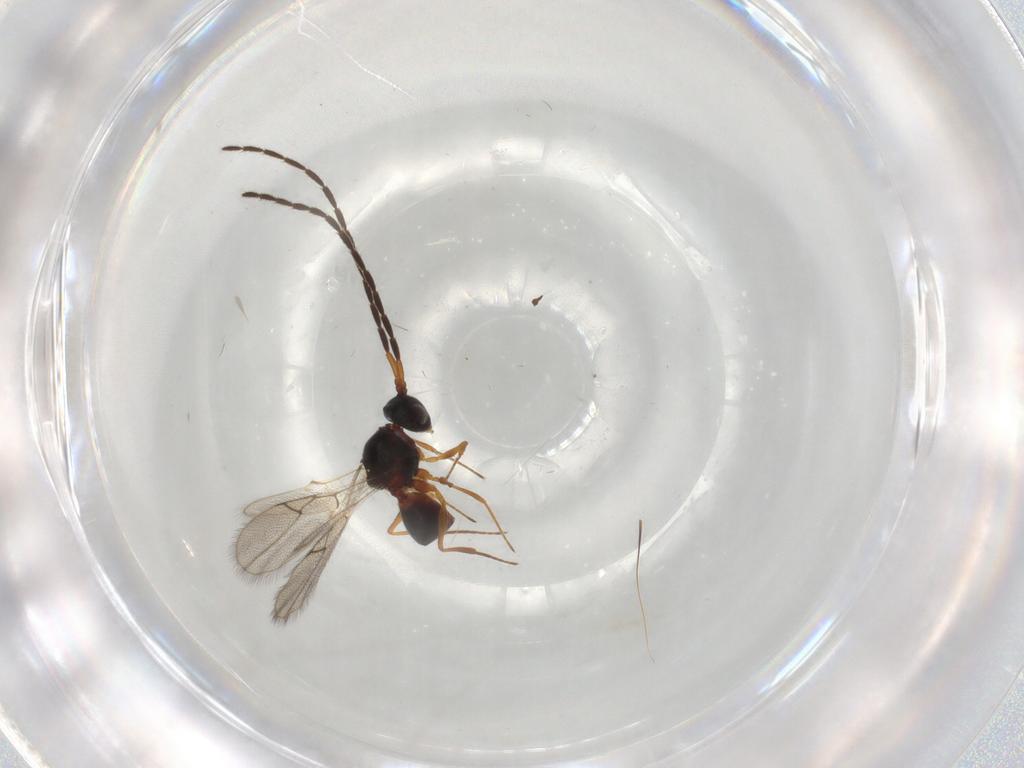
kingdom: Animalia
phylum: Arthropoda
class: Insecta
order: Hymenoptera
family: Figitidae
